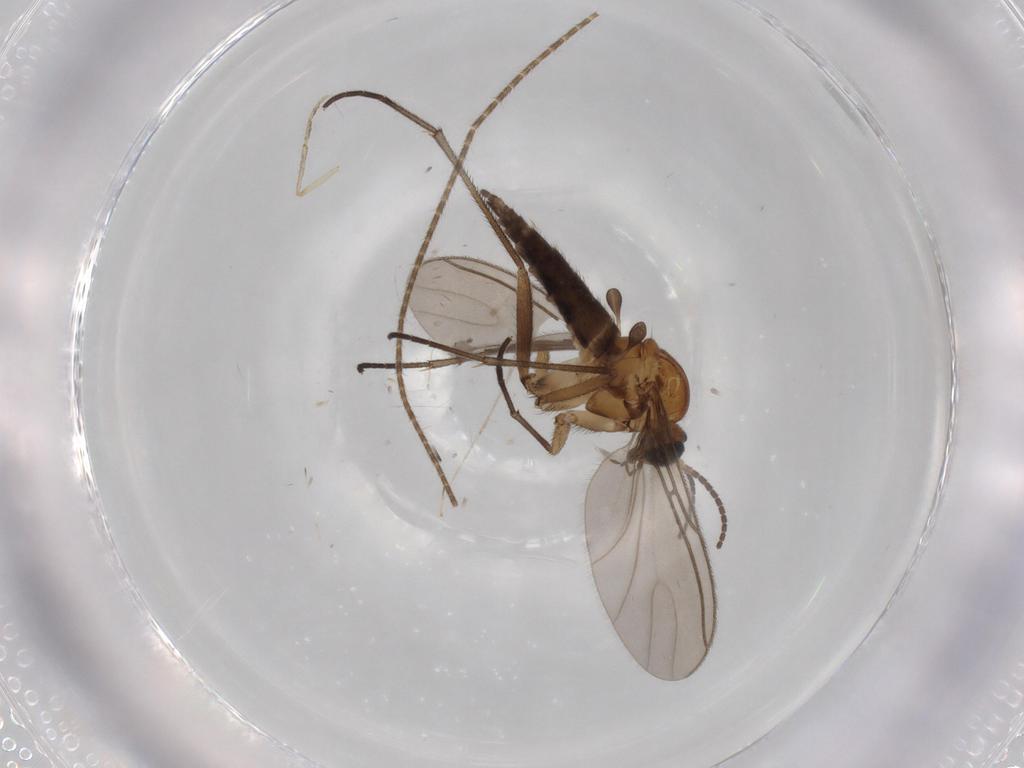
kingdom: Animalia
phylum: Arthropoda
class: Insecta
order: Diptera
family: Sciaridae
